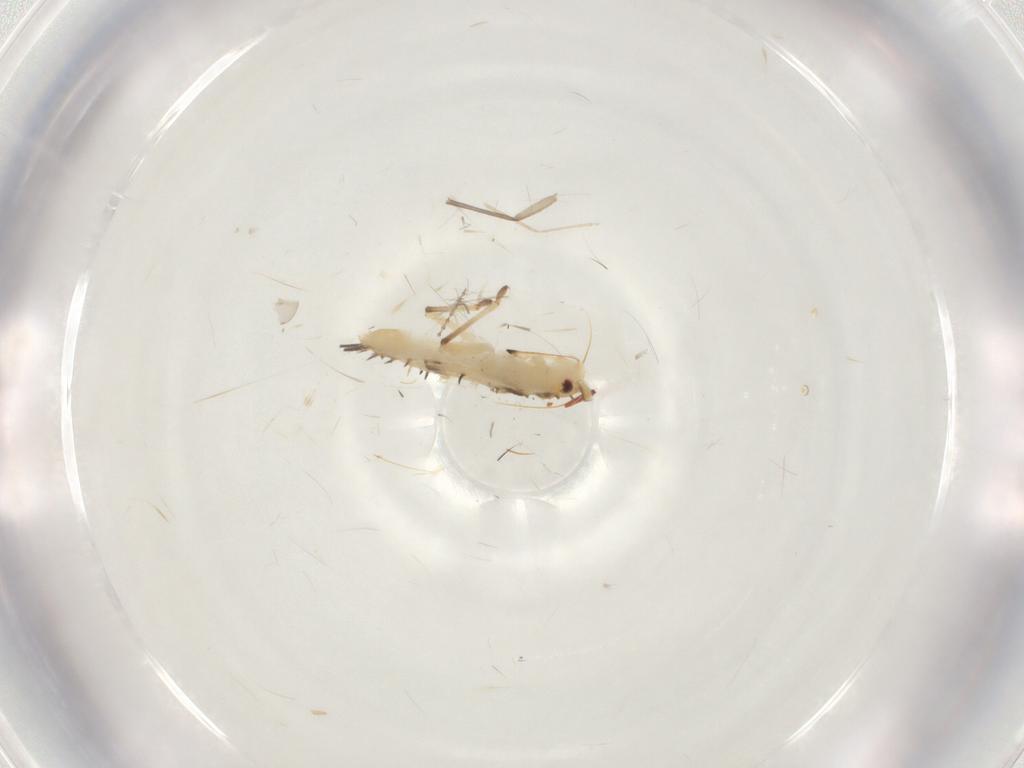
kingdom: Animalia
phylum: Arthropoda
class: Insecta
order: Hemiptera
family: Tingidae
